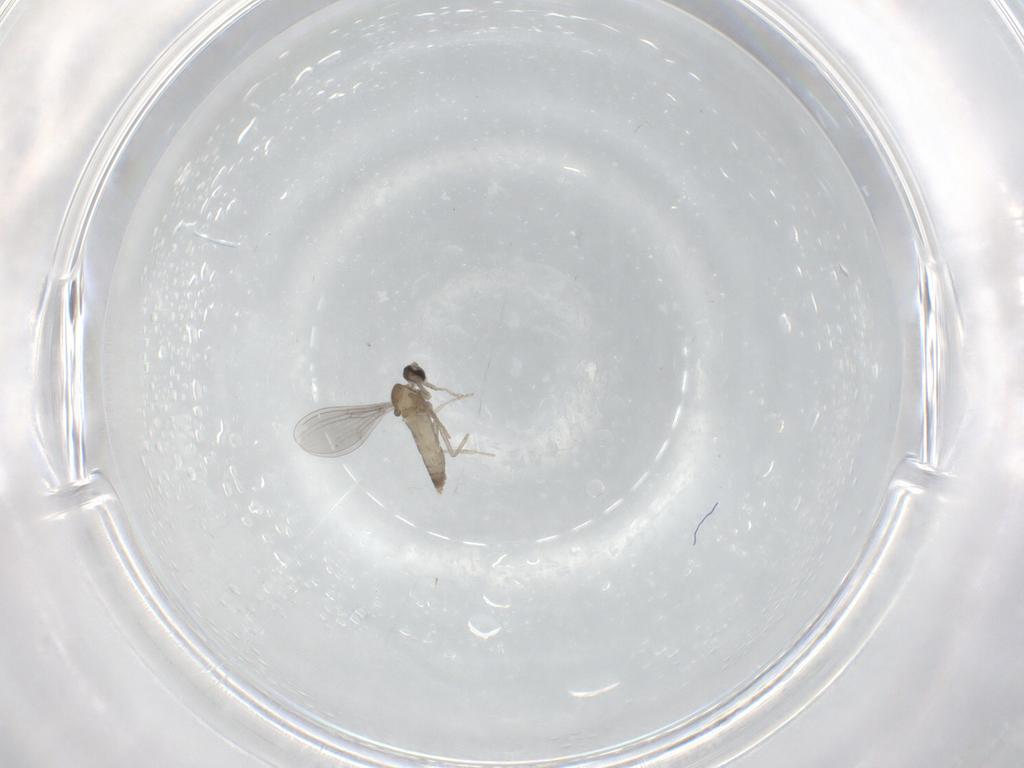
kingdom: Animalia
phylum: Arthropoda
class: Insecta
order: Diptera
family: Cecidomyiidae
